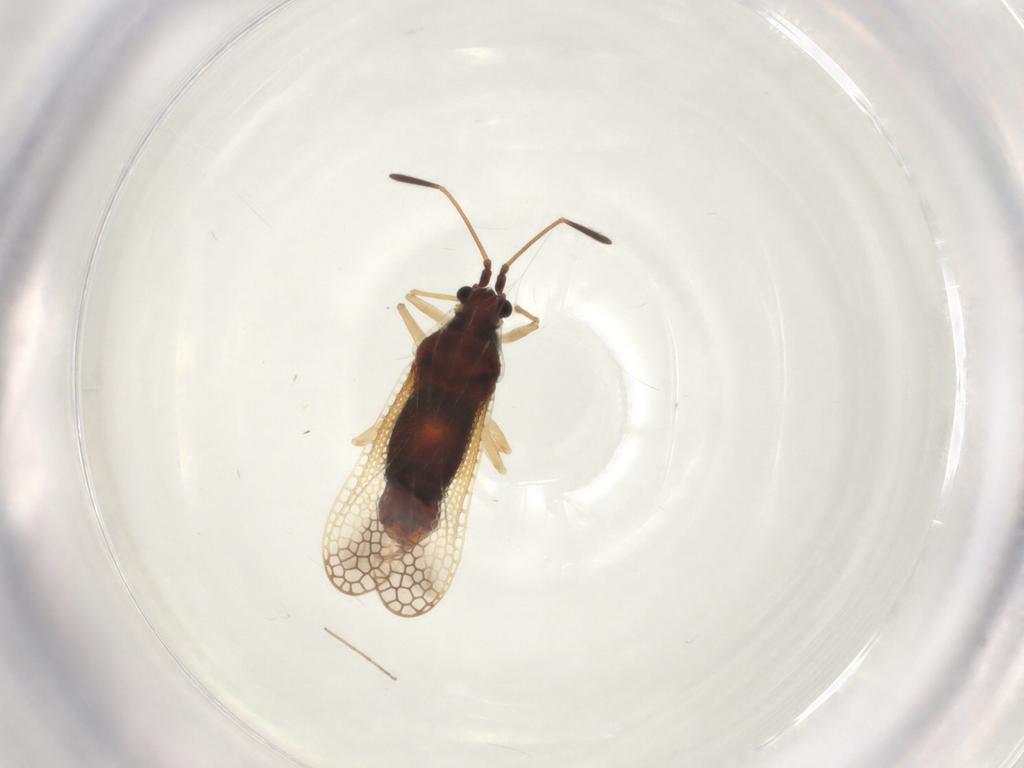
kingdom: Animalia
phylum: Arthropoda
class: Insecta
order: Hemiptera
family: Tingidae
